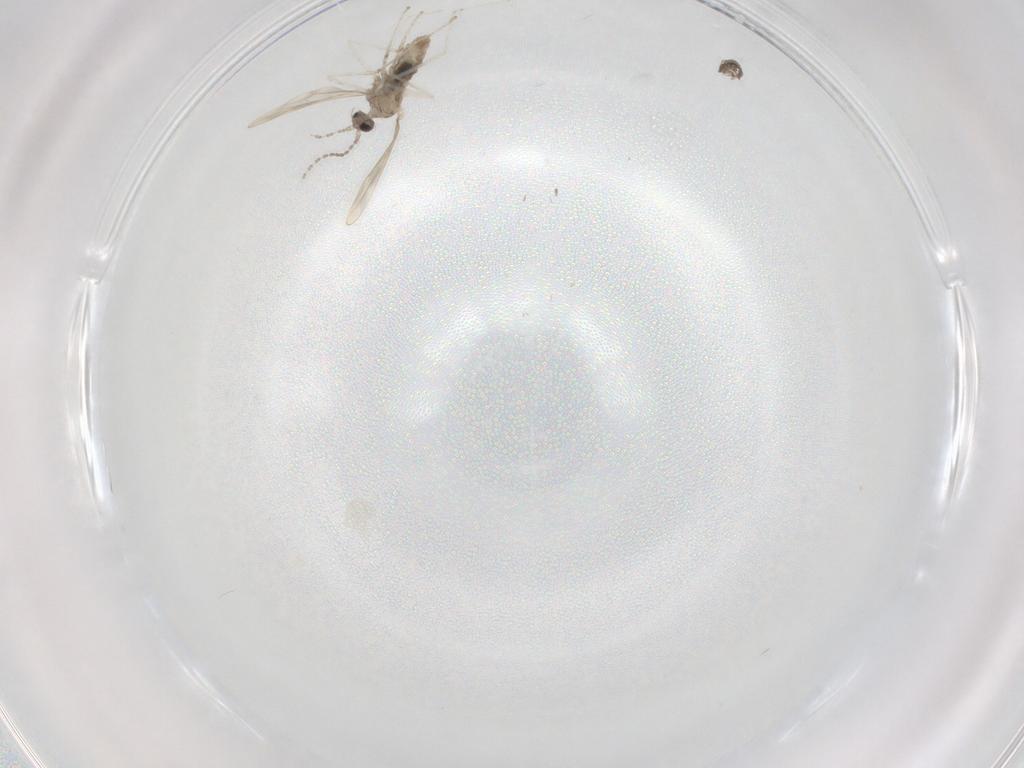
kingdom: Animalia
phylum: Arthropoda
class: Insecta
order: Diptera
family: Cecidomyiidae
